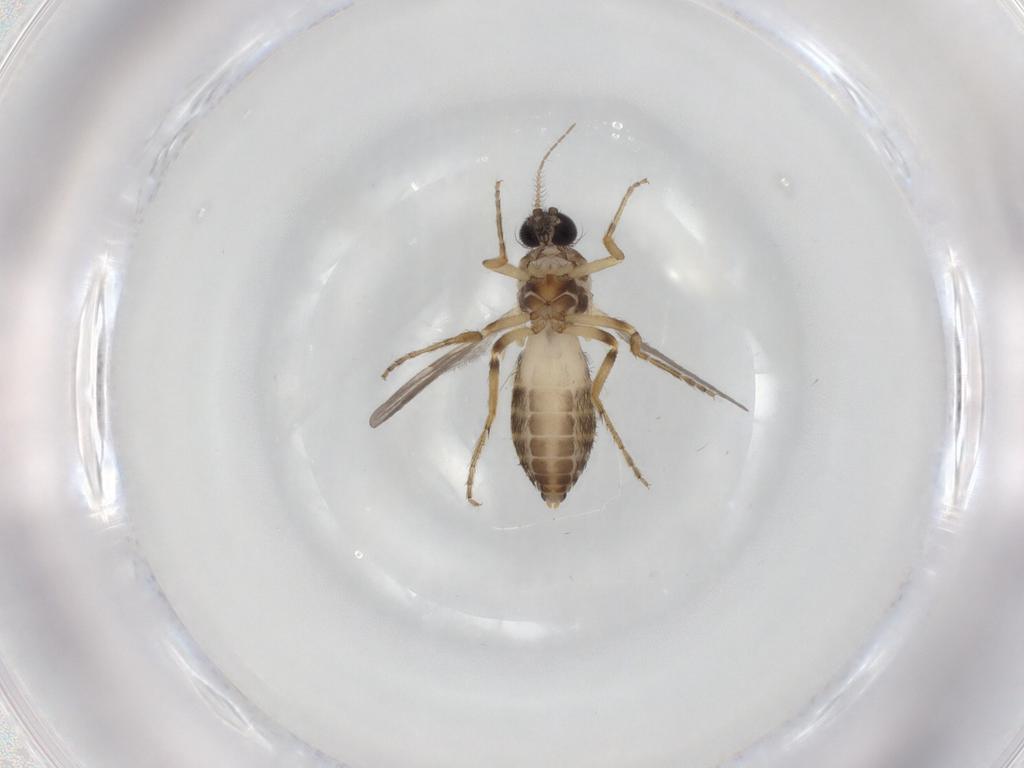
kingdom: Animalia
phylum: Arthropoda
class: Insecta
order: Diptera
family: Ceratopogonidae
